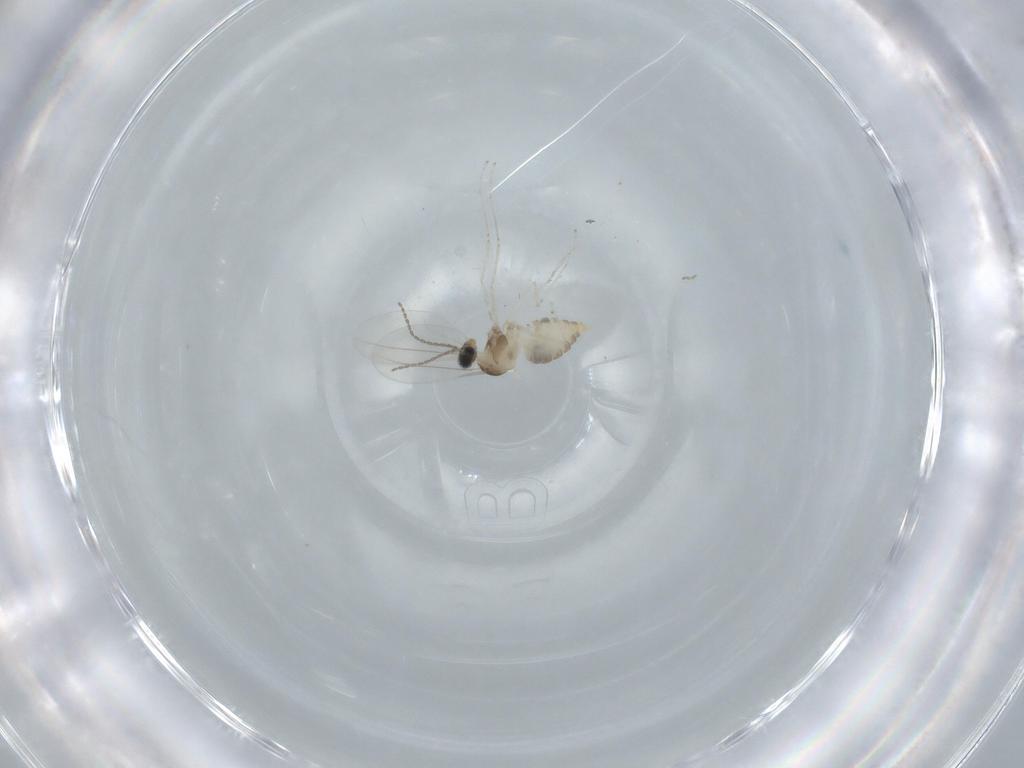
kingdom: Animalia
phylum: Arthropoda
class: Insecta
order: Diptera
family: Cecidomyiidae
